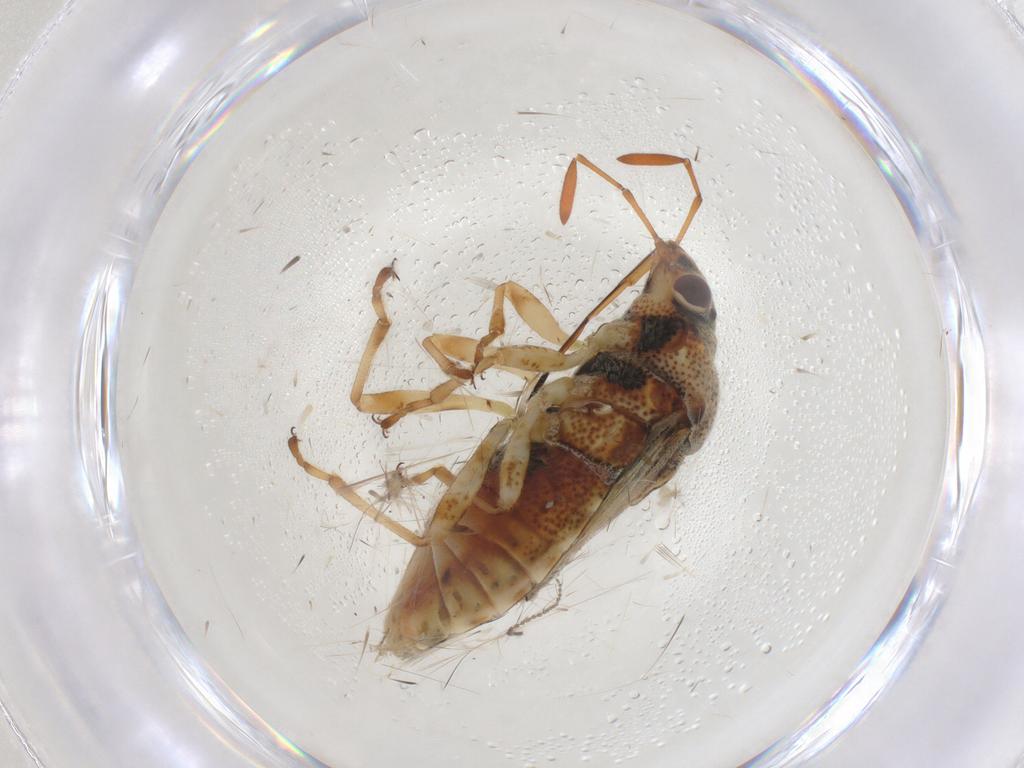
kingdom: Animalia
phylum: Arthropoda
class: Insecta
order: Hemiptera
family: Lygaeidae
